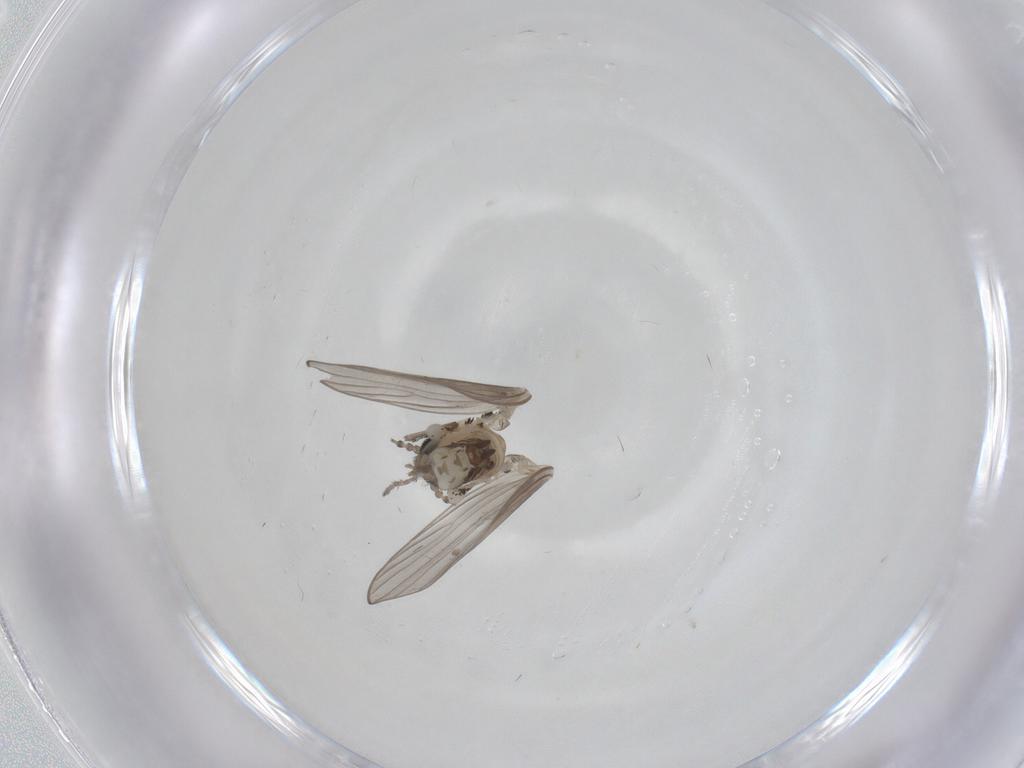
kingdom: Animalia
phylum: Arthropoda
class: Insecta
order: Diptera
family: Psychodidae
